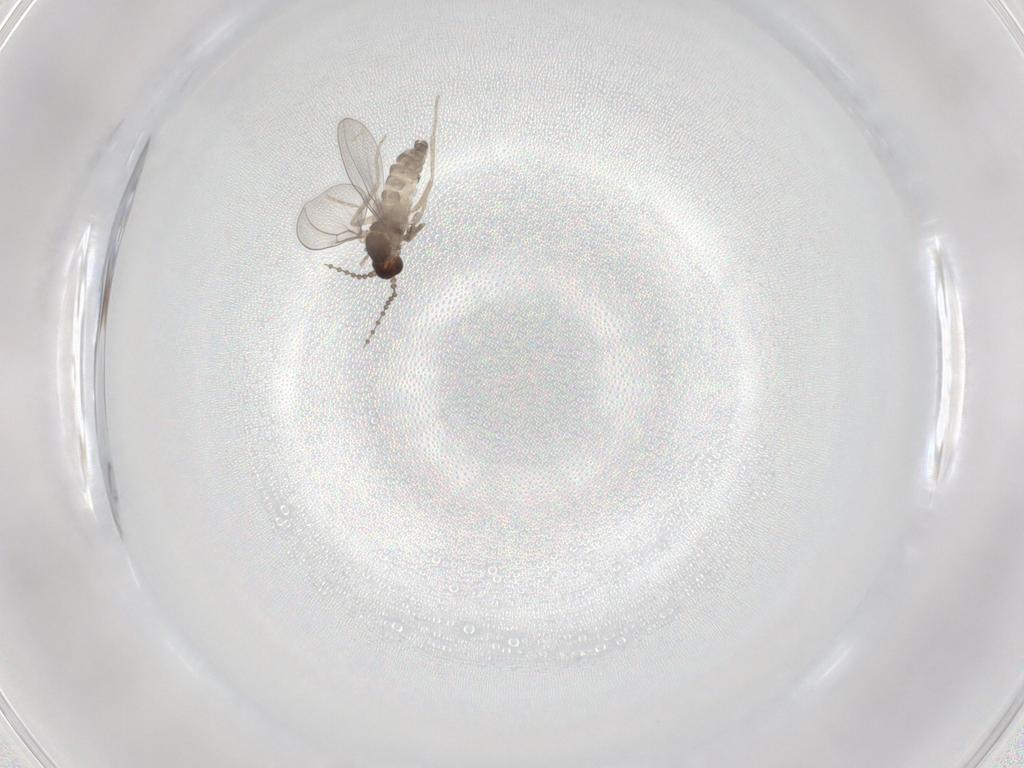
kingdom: Animalia
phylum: Arthropoda
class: Insecta
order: Diptera
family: Cecidomyiidae
